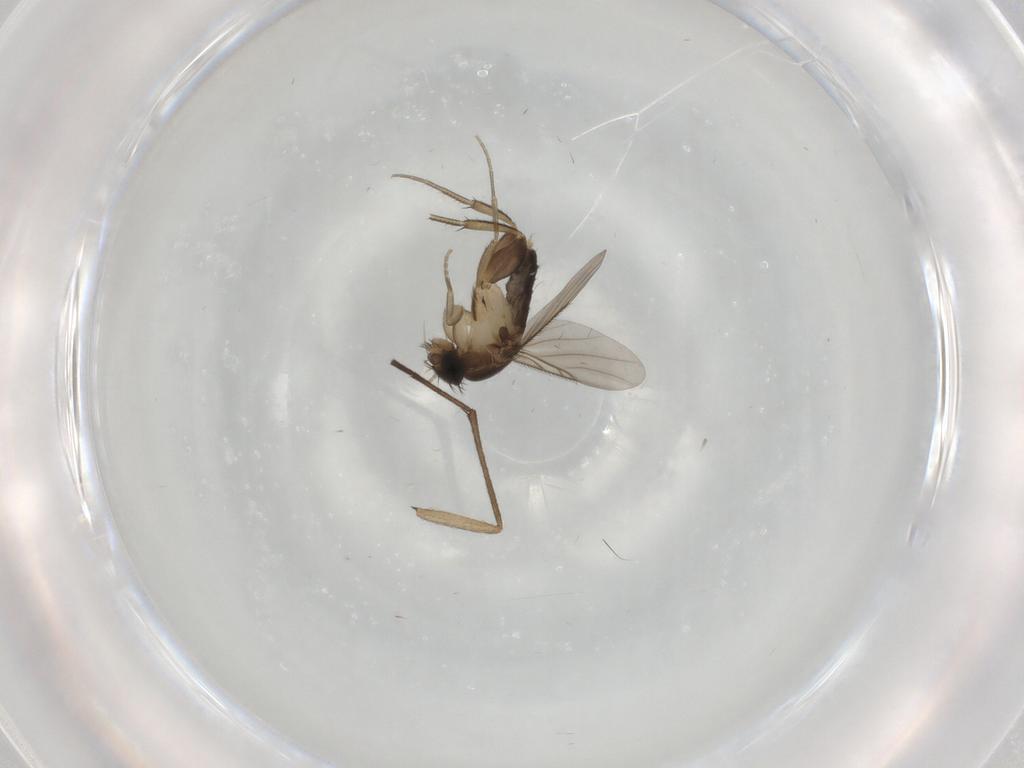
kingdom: Animalia
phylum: Arthropoda
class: Insecta
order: Diptera
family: Phoridae
